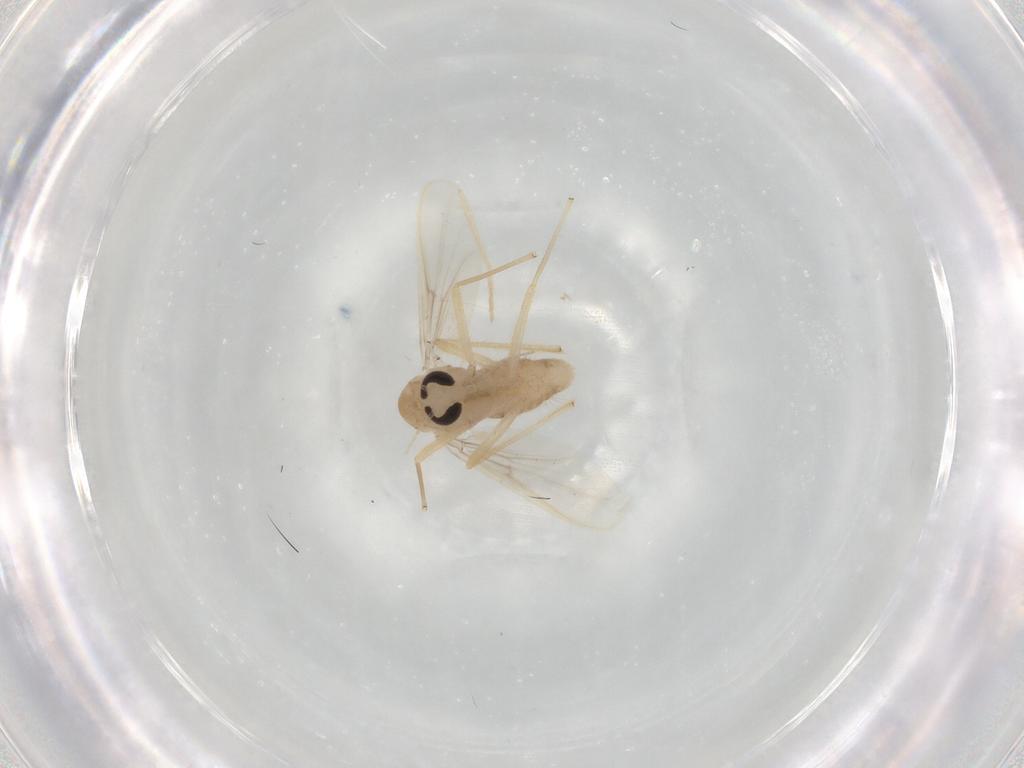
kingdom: Animalia
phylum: Arthropoda
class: Insecta
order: Diptera
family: Chironomidae
